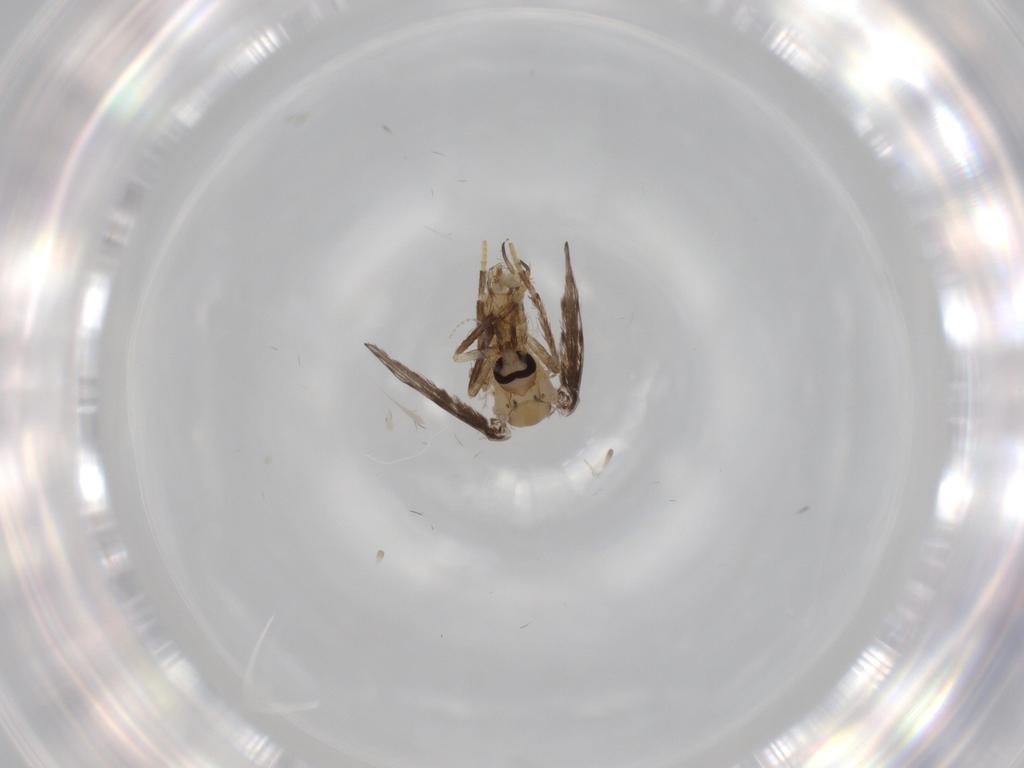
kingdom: Animalia
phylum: Arthropoda
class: Insecta
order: Diptera
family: Psychodidae
